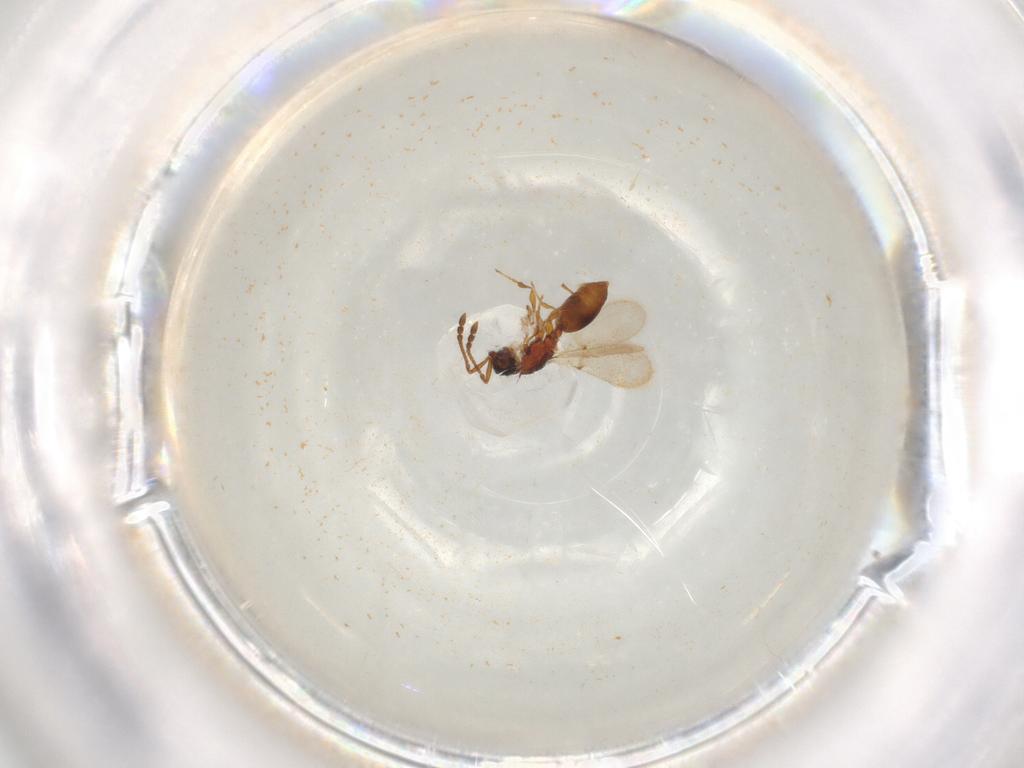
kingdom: Animalia
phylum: Arthropoda
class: Insecta
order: Hymenoptera
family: Diapriidae
